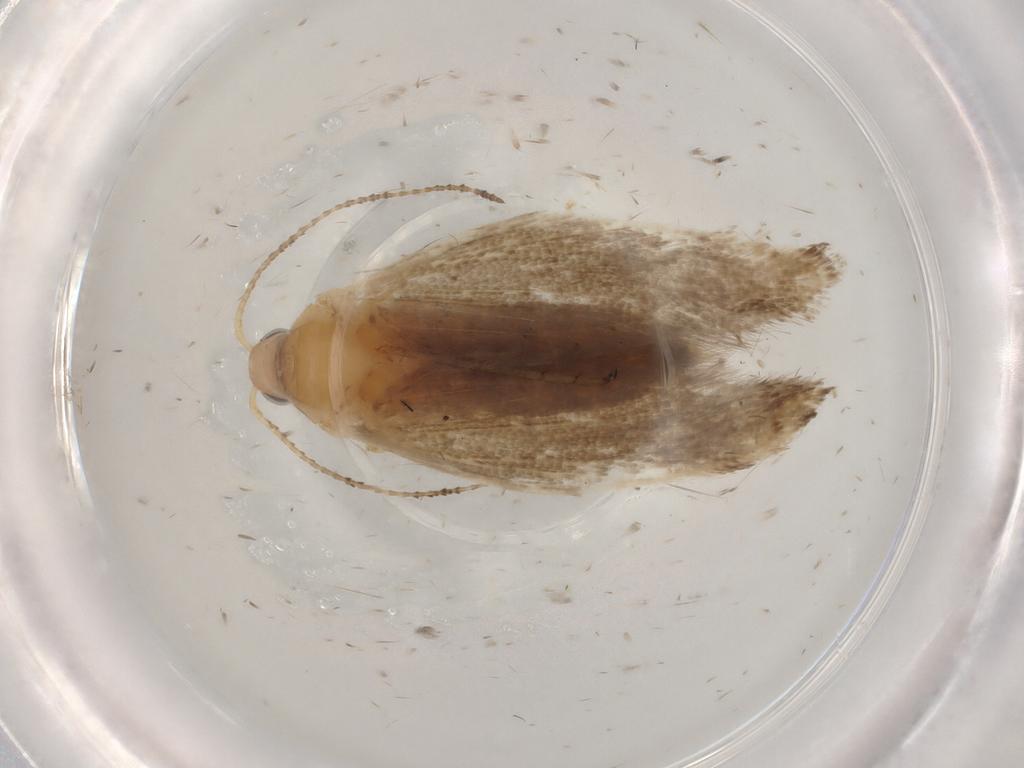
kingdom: Animalia
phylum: Arthropoda
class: Insecta
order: Lepidoptera
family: Ypsolophidae
